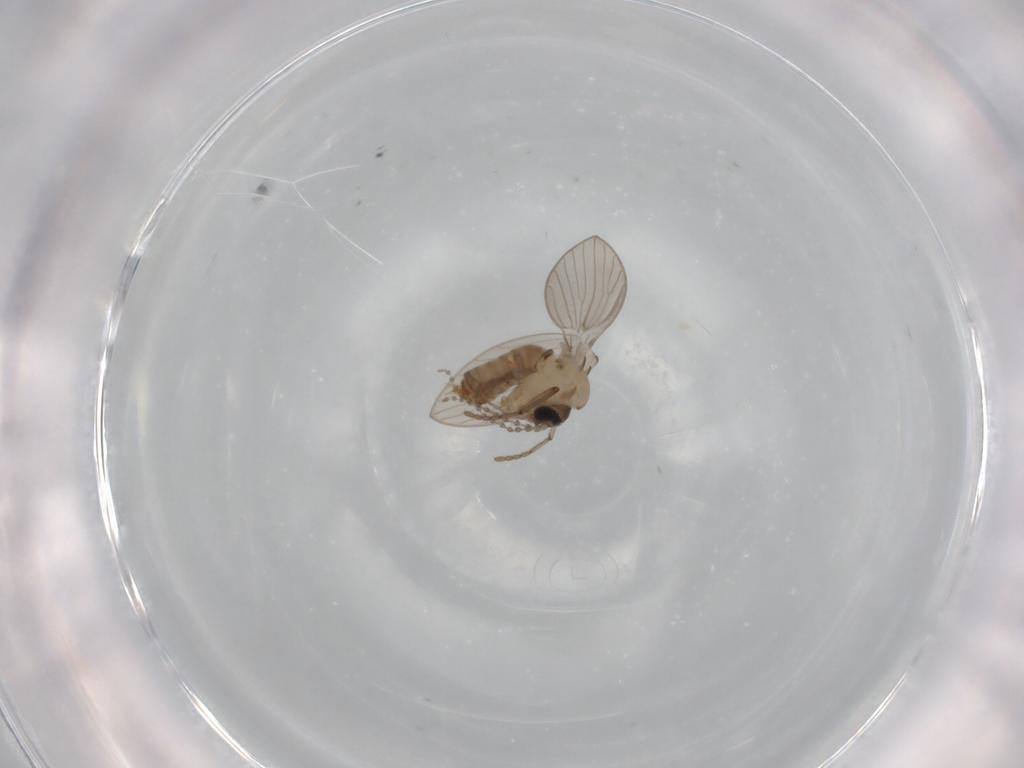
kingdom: Animalia
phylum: Arthropoda
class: Insecta
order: Diptera
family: Psychodidae
